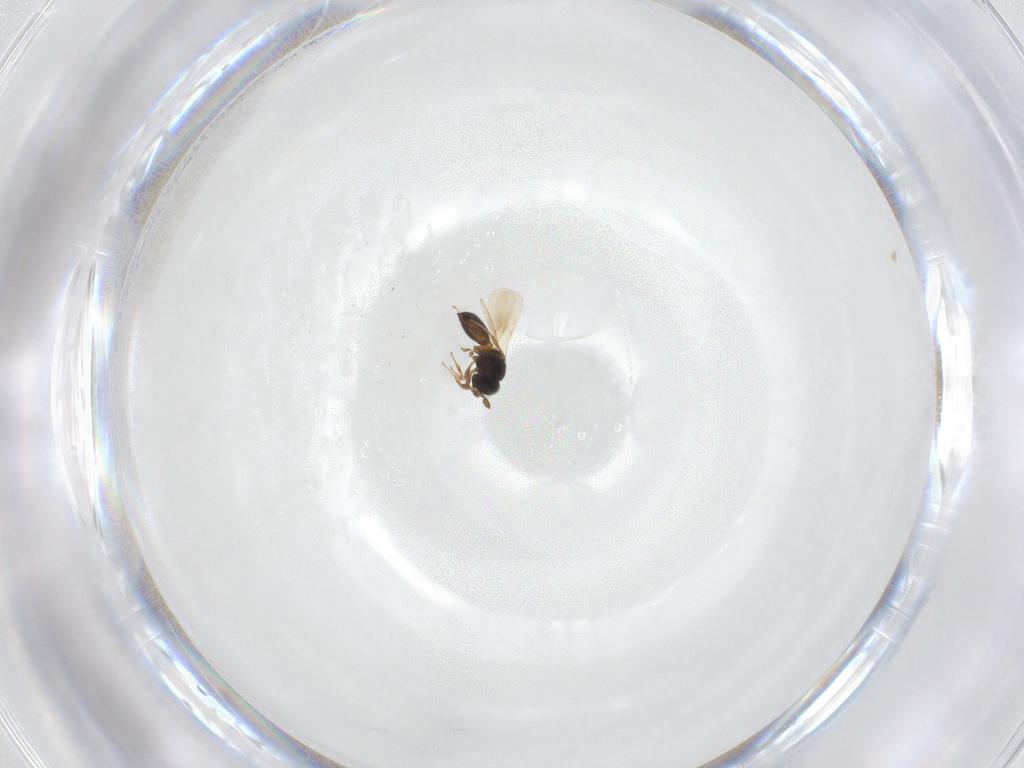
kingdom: Animalia
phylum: Arthropoda
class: Insecta
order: Hymenoptera
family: Scelionidae
